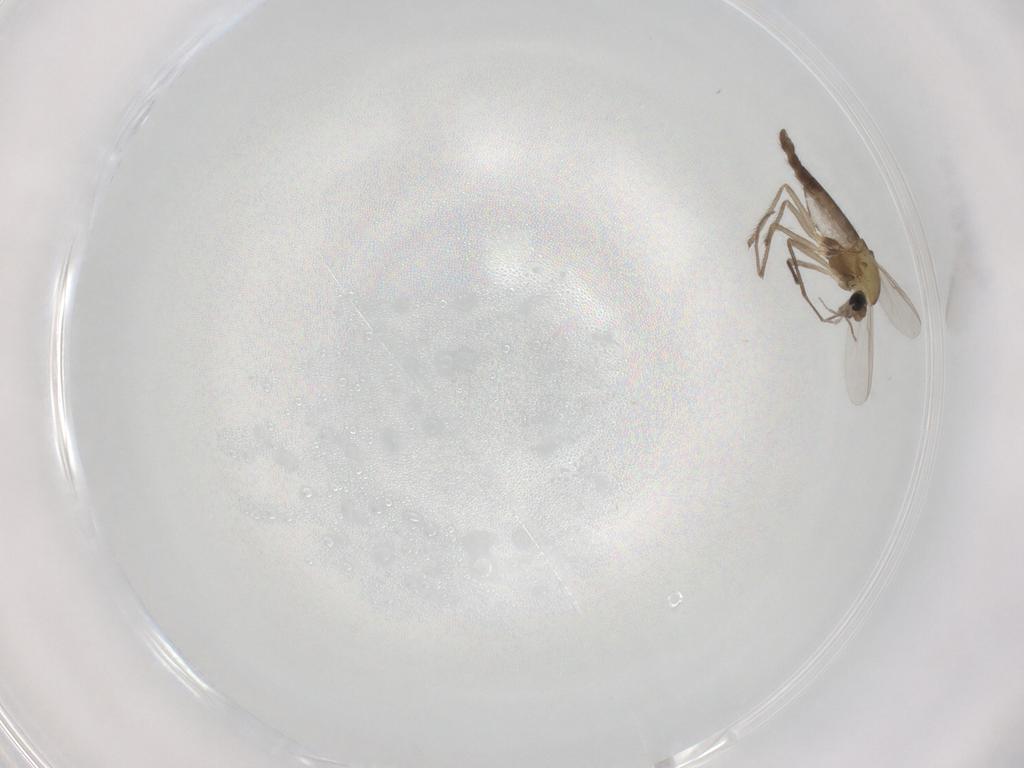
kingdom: Animalia
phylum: Arthropoda
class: Insecta
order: Diptera
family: Chironomidae
